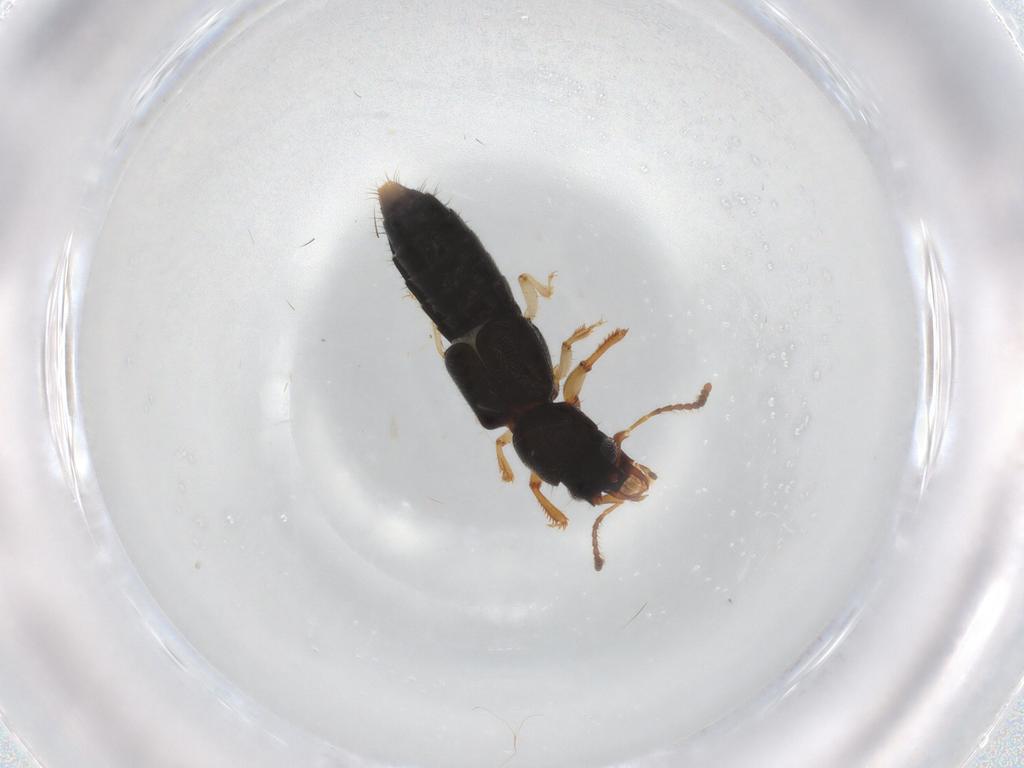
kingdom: Animalia
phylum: Arthropoda
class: Insecta
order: Coleoptera
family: Staphylinidae
